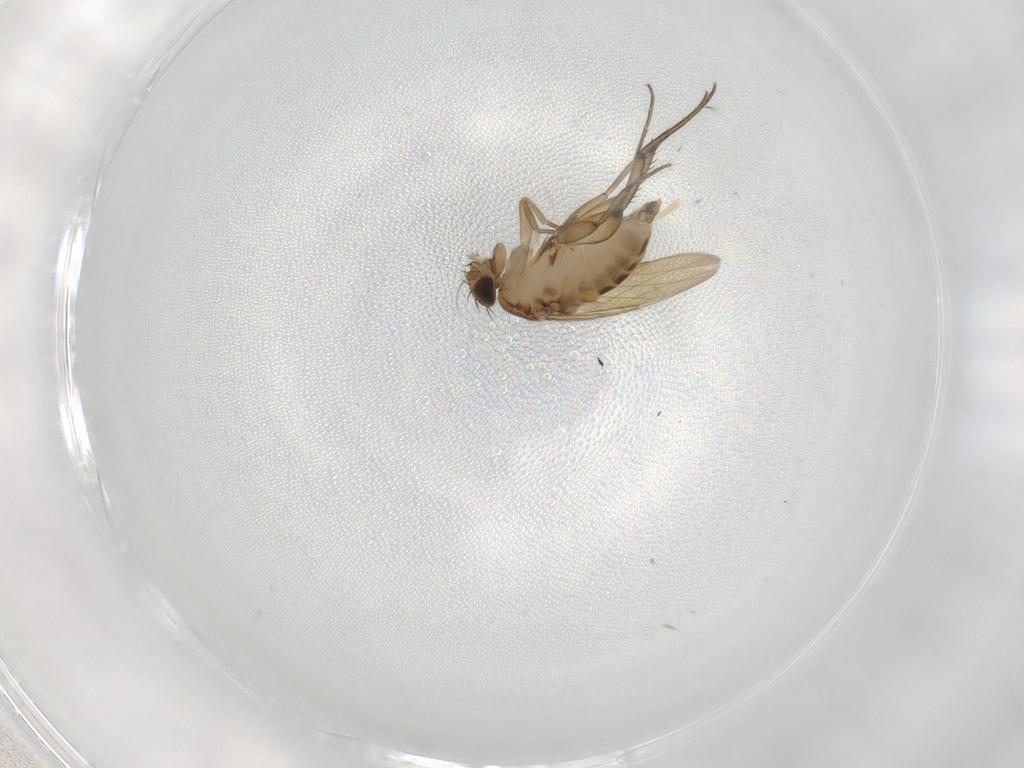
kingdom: Animalia
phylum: Arthropoda
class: Insecta
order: Diptera
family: Phoridae
